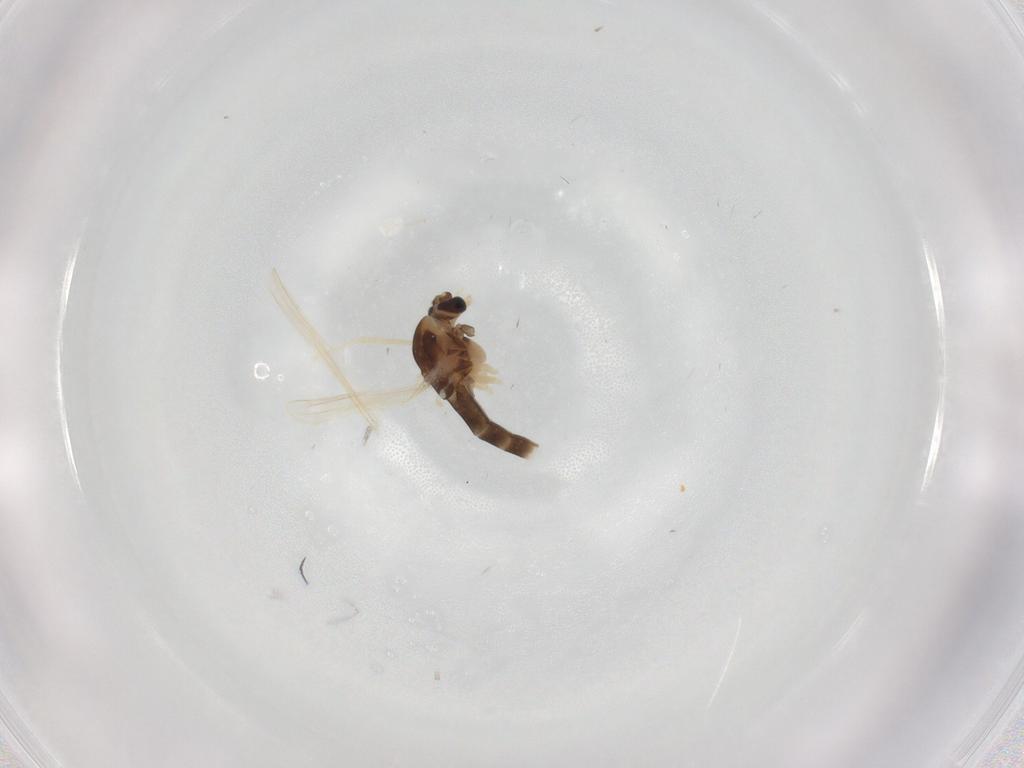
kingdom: Animalia
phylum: Arthropoda
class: Insecta
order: Diptera
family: Chironomidae
